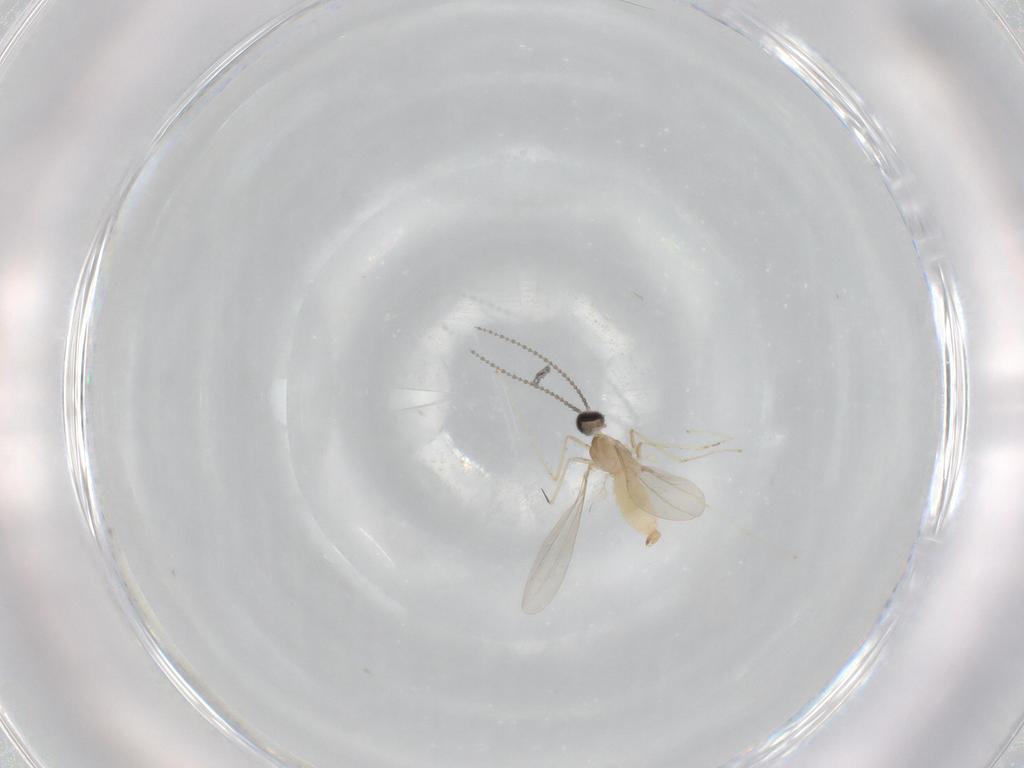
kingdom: Animalia
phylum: Arthropoda
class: Insecta
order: Diptera
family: Cecidomyiidae
